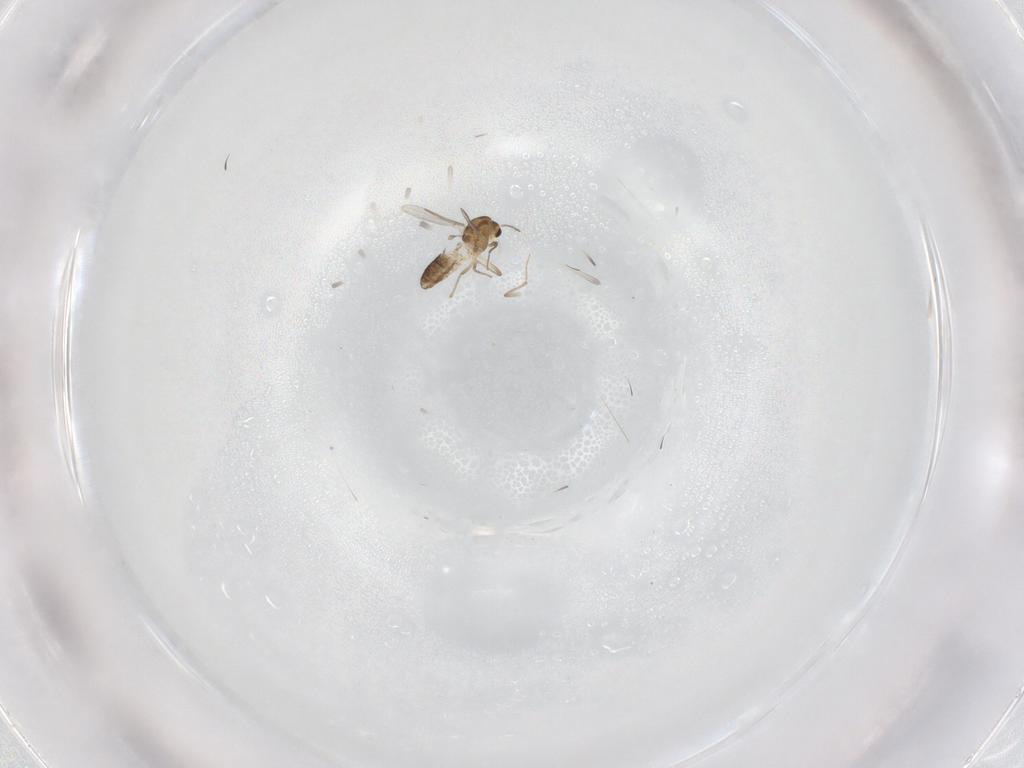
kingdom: Animalia
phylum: Arthropoda
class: Insecta
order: Diptera
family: Chironomidae
